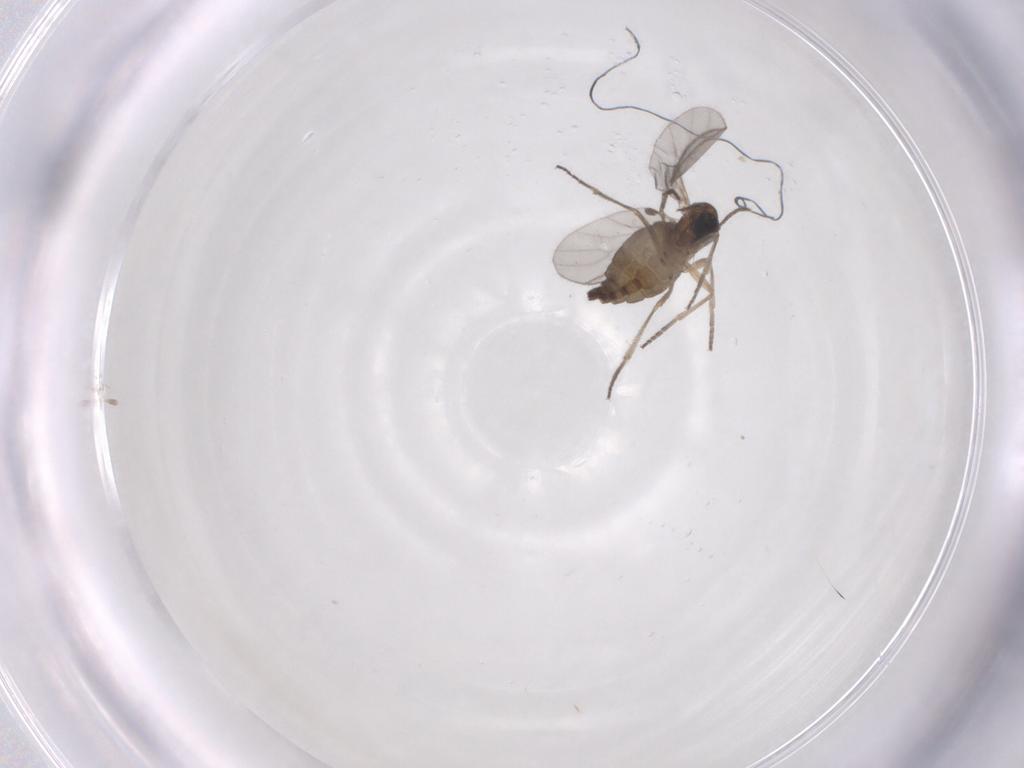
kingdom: Animalia
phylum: Arthropoda
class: Insecta
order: Diptera
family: Sciaridae
